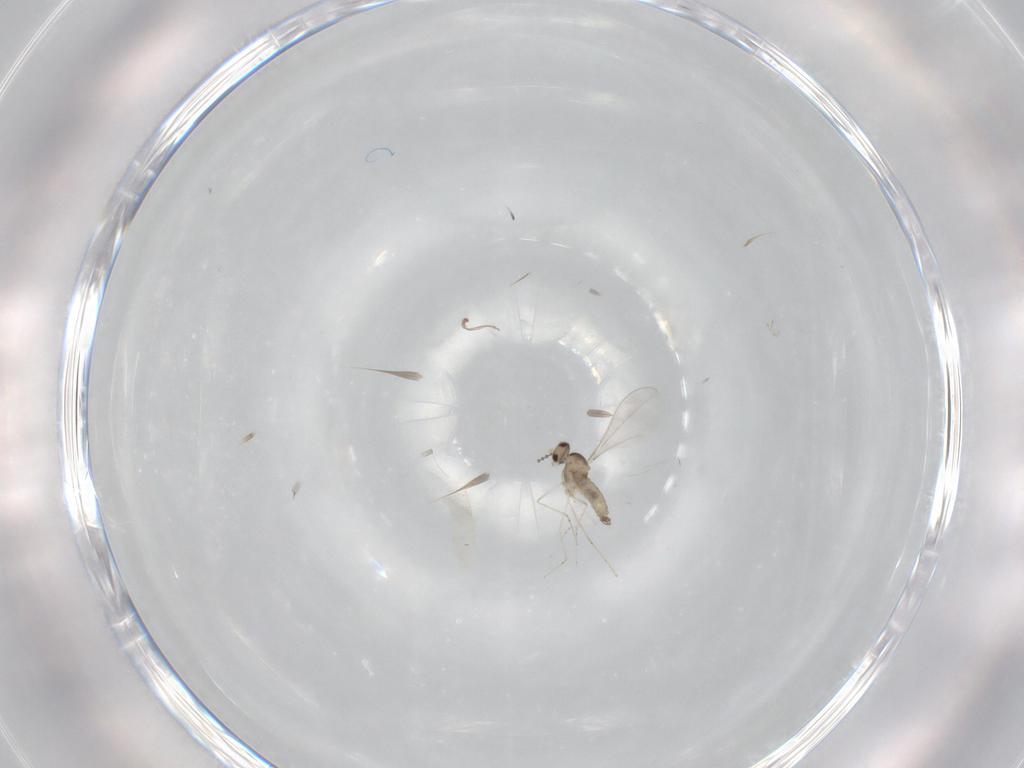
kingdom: Animalia
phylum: Arthropoda
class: Insecta
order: Diptera
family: Cecidomyiidae
